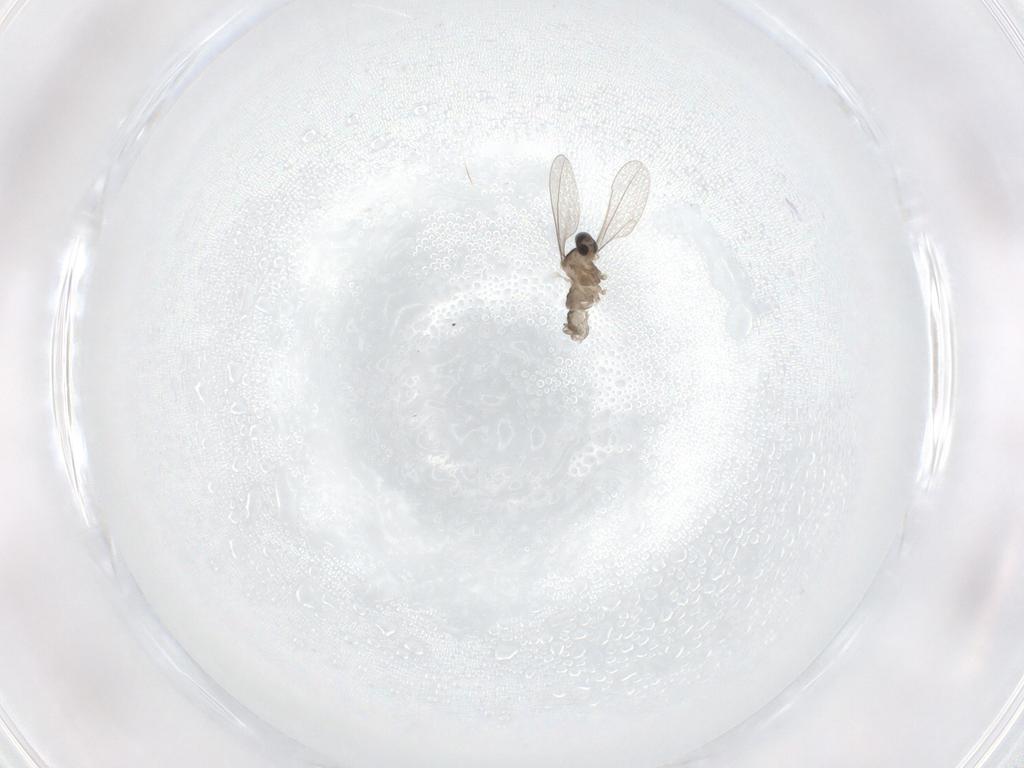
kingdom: Animalia
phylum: Arthropoda
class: Insecta
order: Diptera
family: Cecidomyiidae
